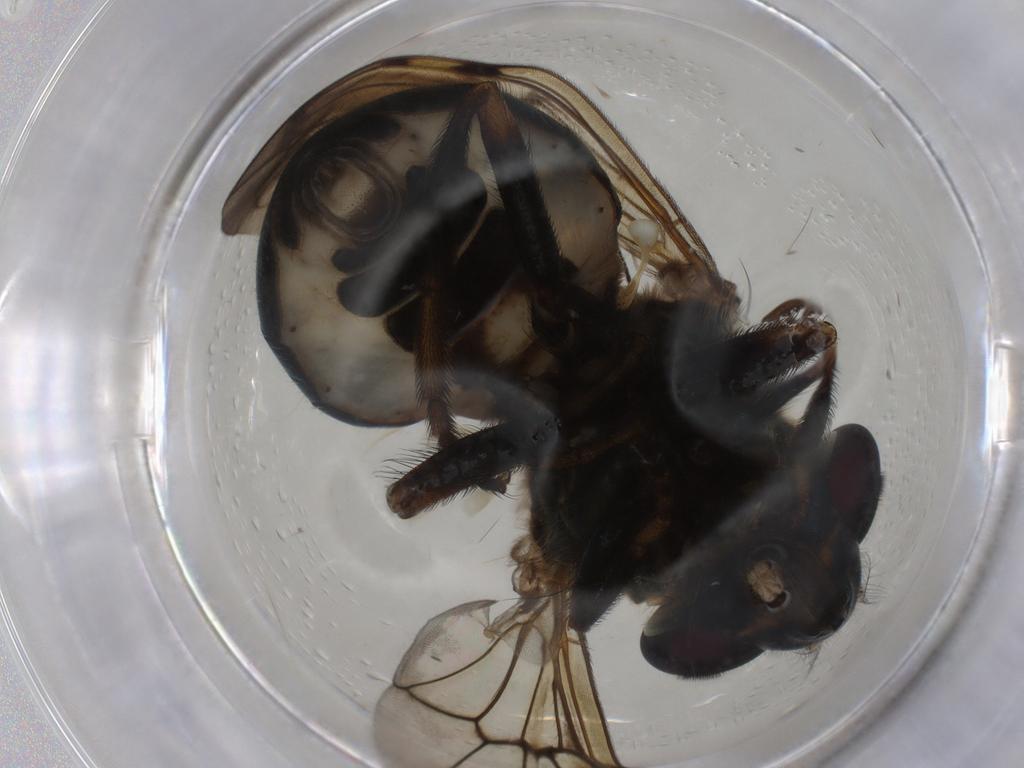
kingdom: Animalia
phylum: Arthropoda
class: Insecta
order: Diptera
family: Syrphidae
